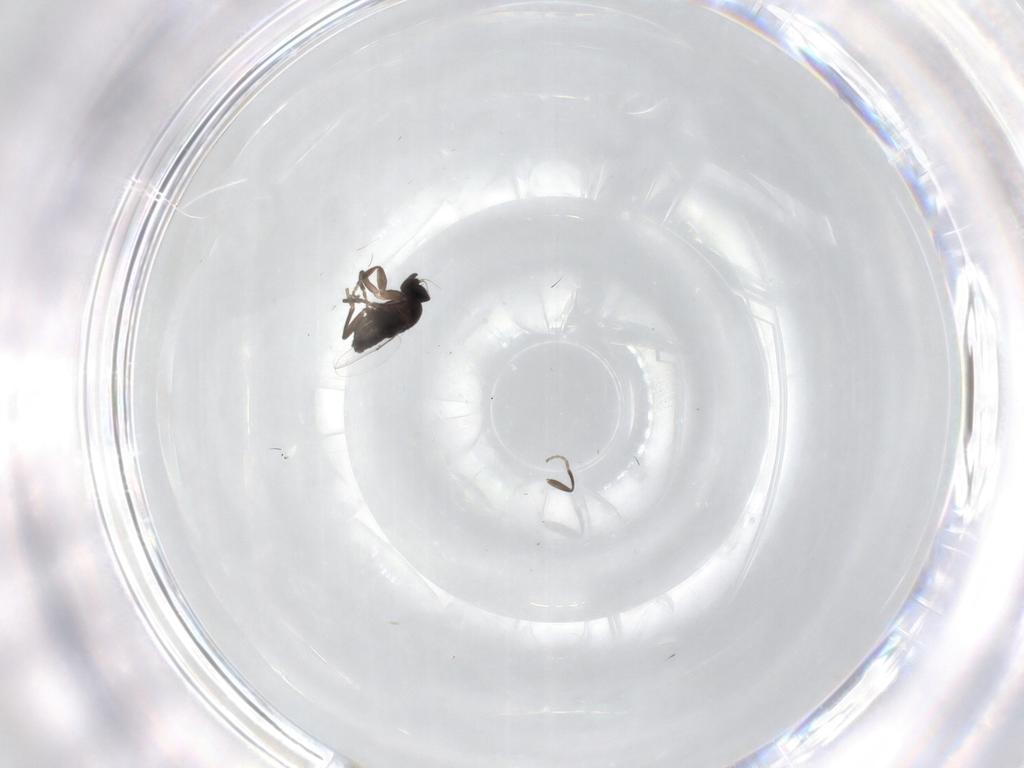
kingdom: Animalia
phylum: Arthropoda
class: Insecta
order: Diptera
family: Phoridae
